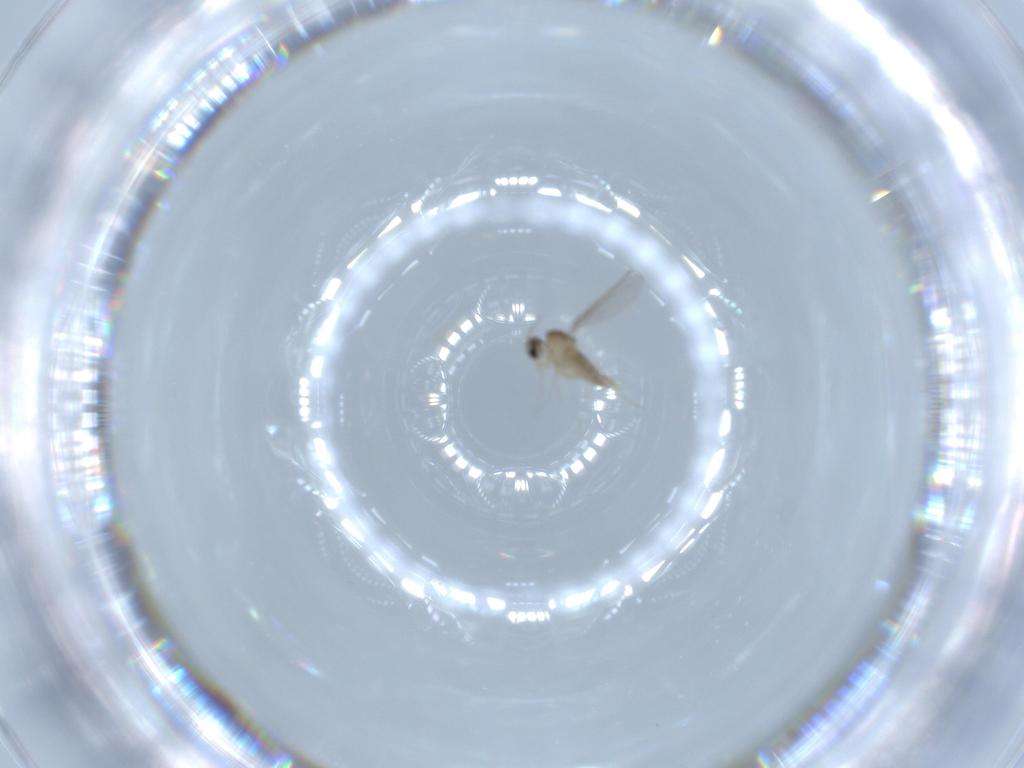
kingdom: Animalia
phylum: Arthropoda
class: Insecta
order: Diptera
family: Cecidomyiidae
